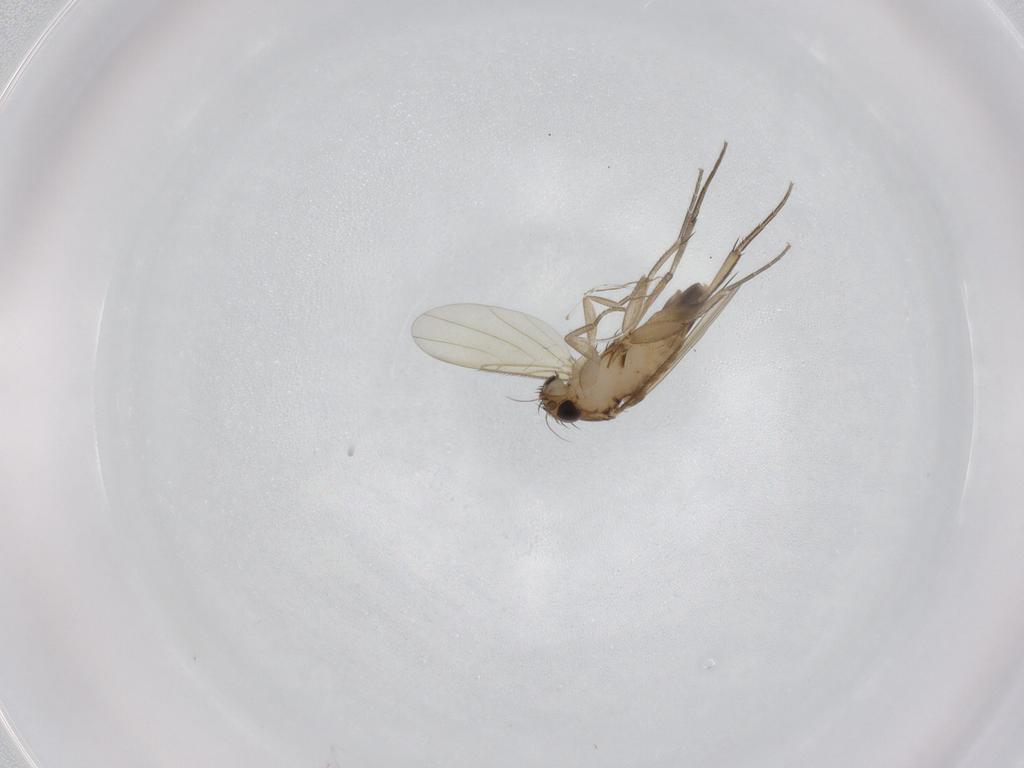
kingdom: Animalia
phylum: Arthropoda
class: Insecta
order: Diptera
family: Phoridae
